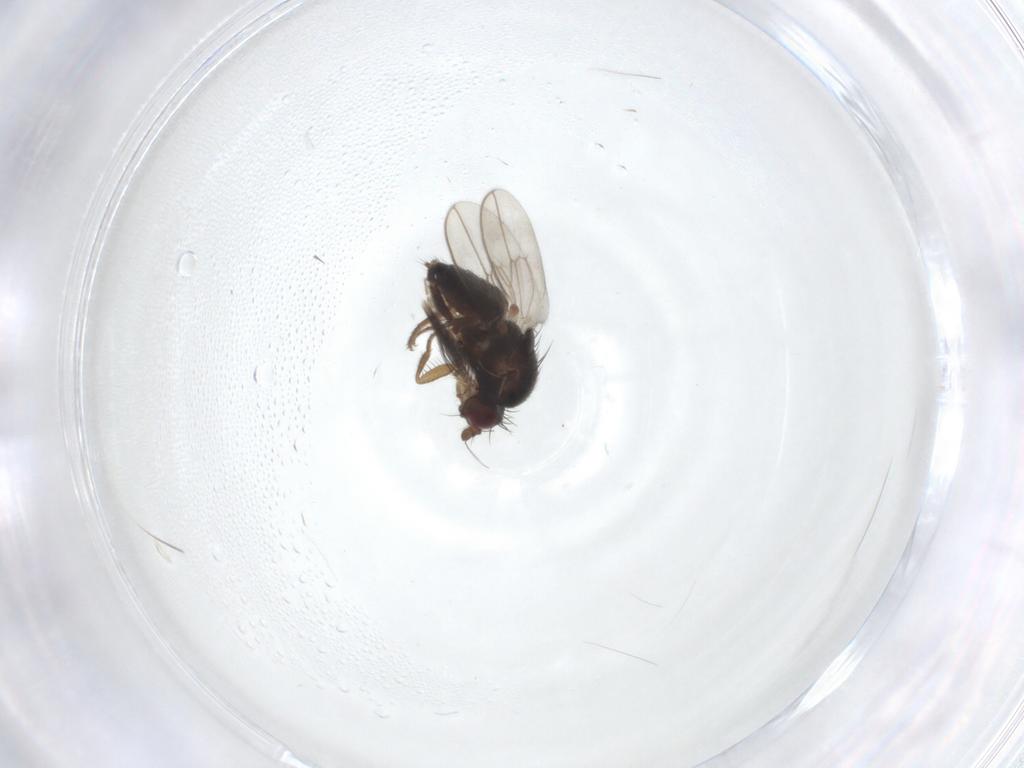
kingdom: Animalia
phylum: Arthropoda
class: Insecta
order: Diptera
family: Sphaeroceridae
